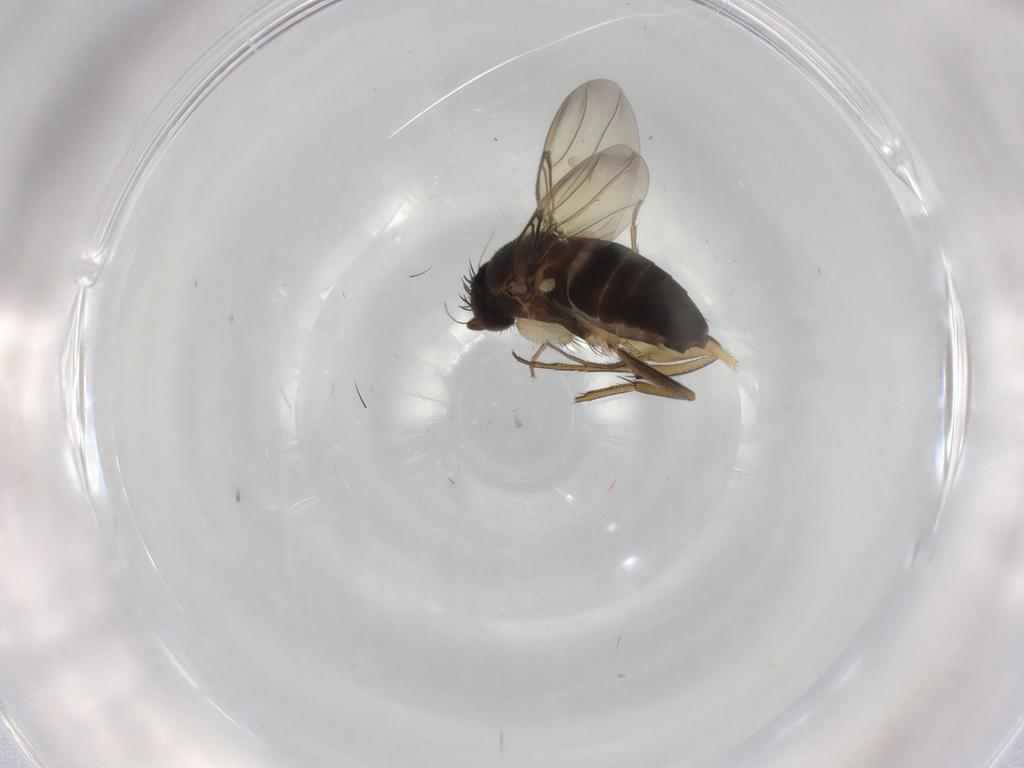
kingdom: Animalia
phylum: Arthropoda
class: Insecta
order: Diptera
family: Phoridae
